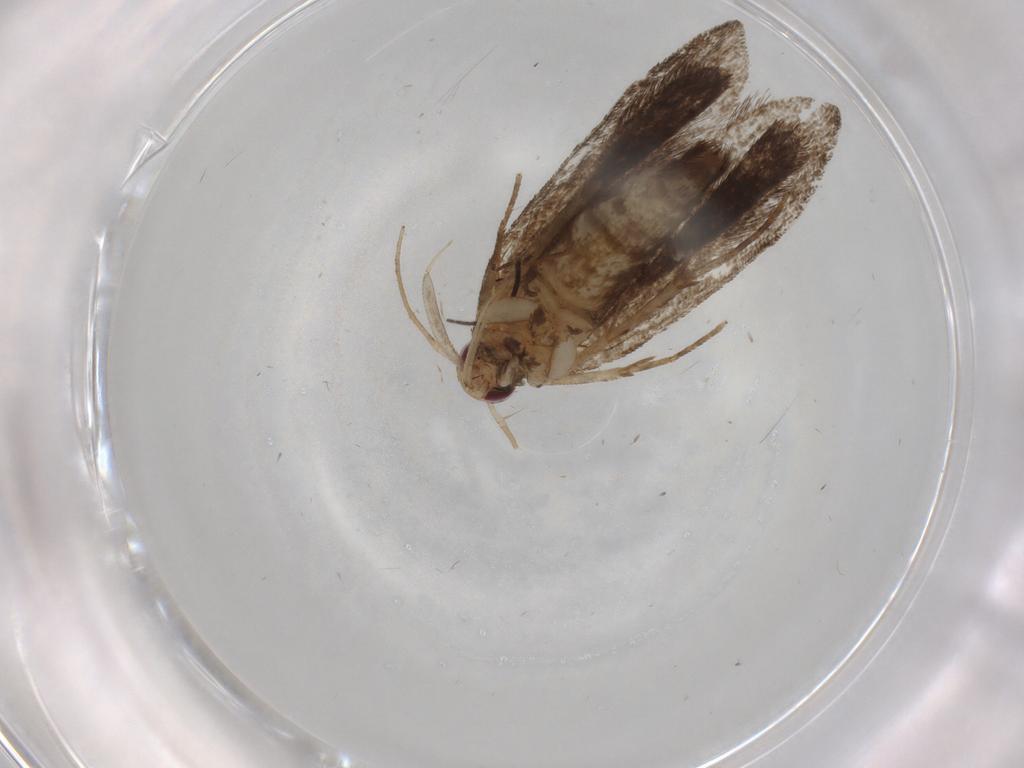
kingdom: Animalia
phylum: Arthropoda
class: Insecta
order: Lepidoptera
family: Gelechiidae
